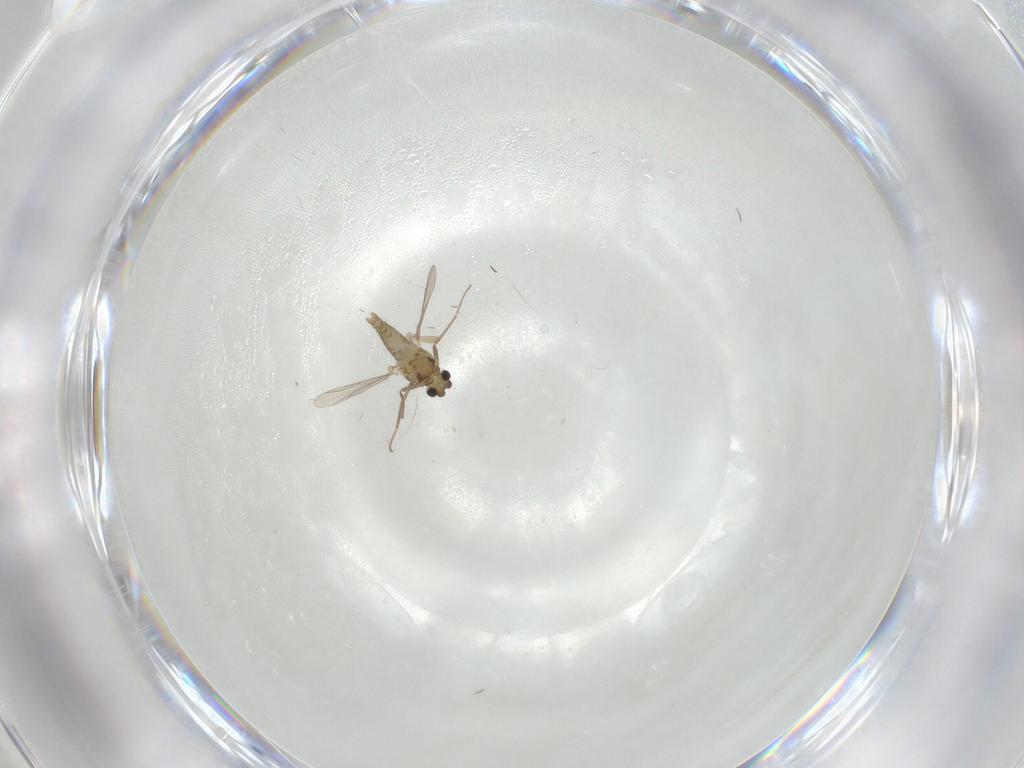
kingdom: Animalia
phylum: Arthropoda
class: Insecta
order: Diptera
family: Chironomidae
